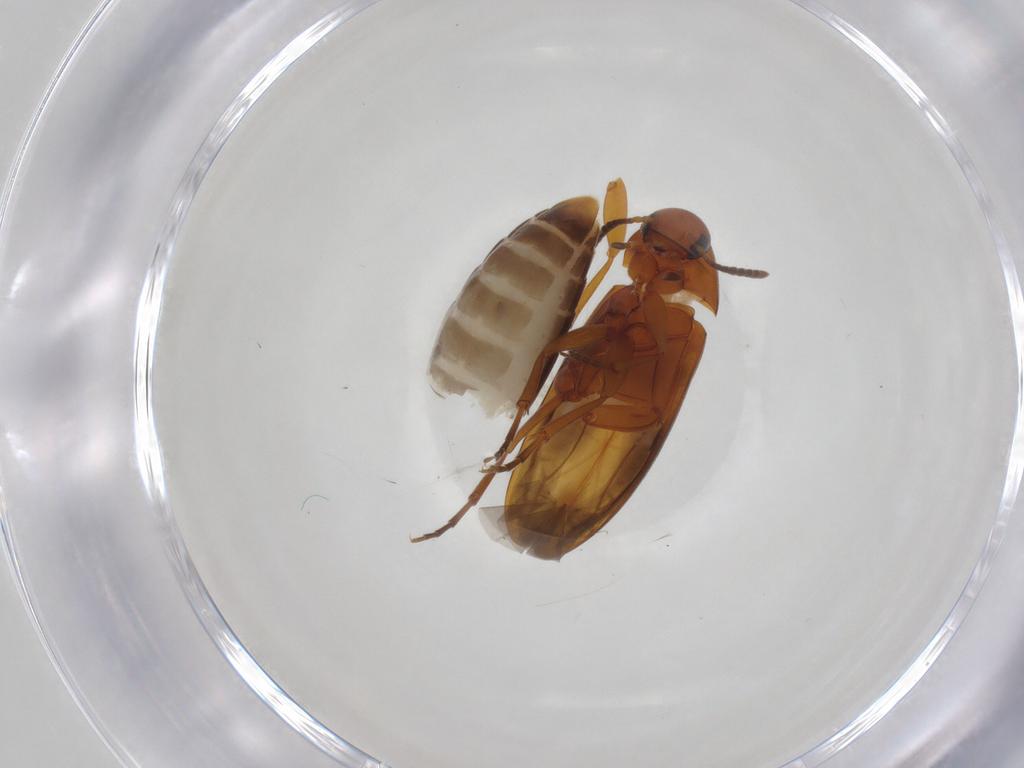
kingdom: Animalia
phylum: Arthropoda
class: Insecta
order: Coleoptera
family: Scraptiidae
